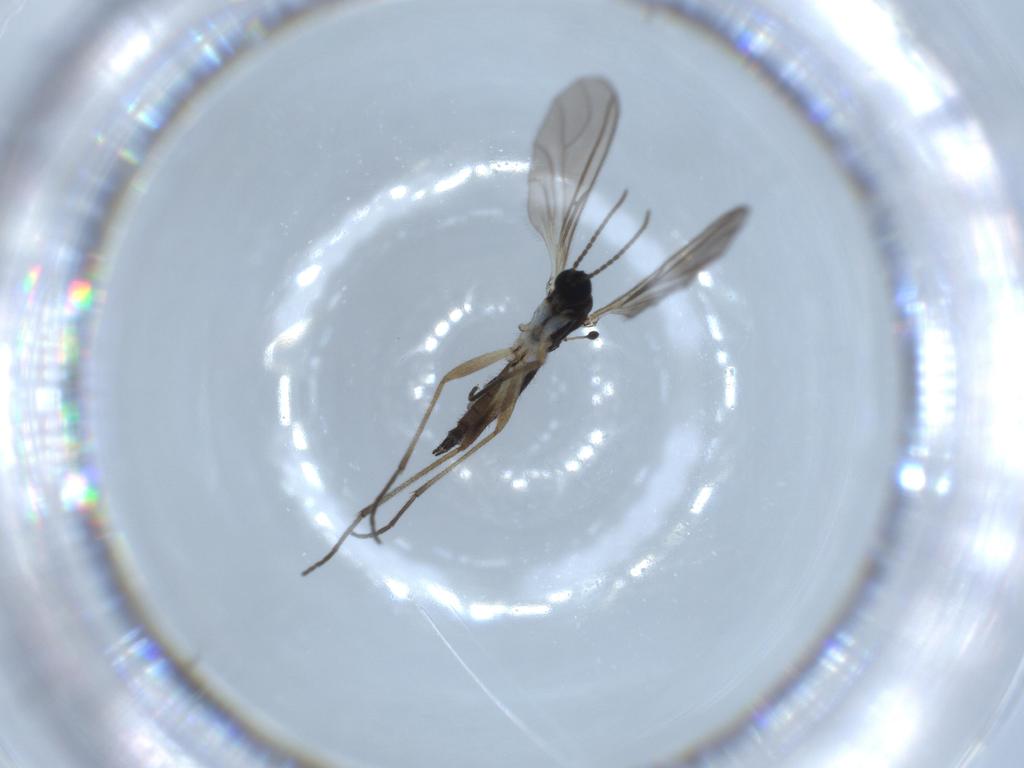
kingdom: Animalia
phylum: Arthropoda
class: Insecta
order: Diptera
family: Sciaridae
